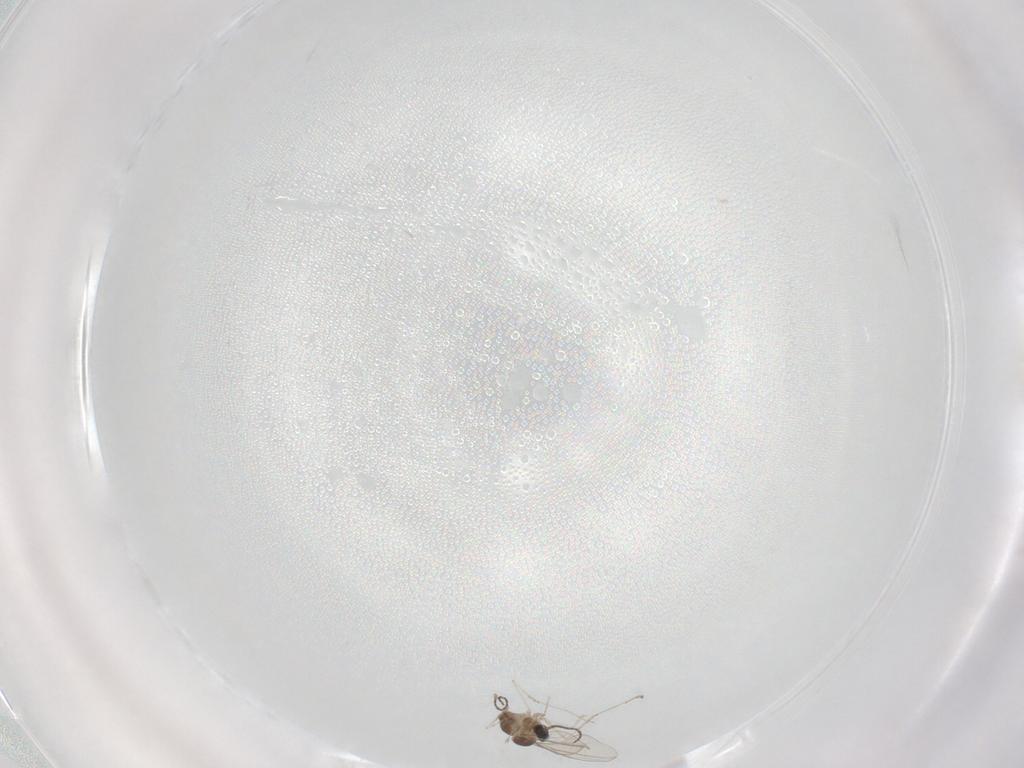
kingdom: Animalia
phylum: Arthropoda
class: Insecta
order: Diptera
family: Cecidomyiidae
